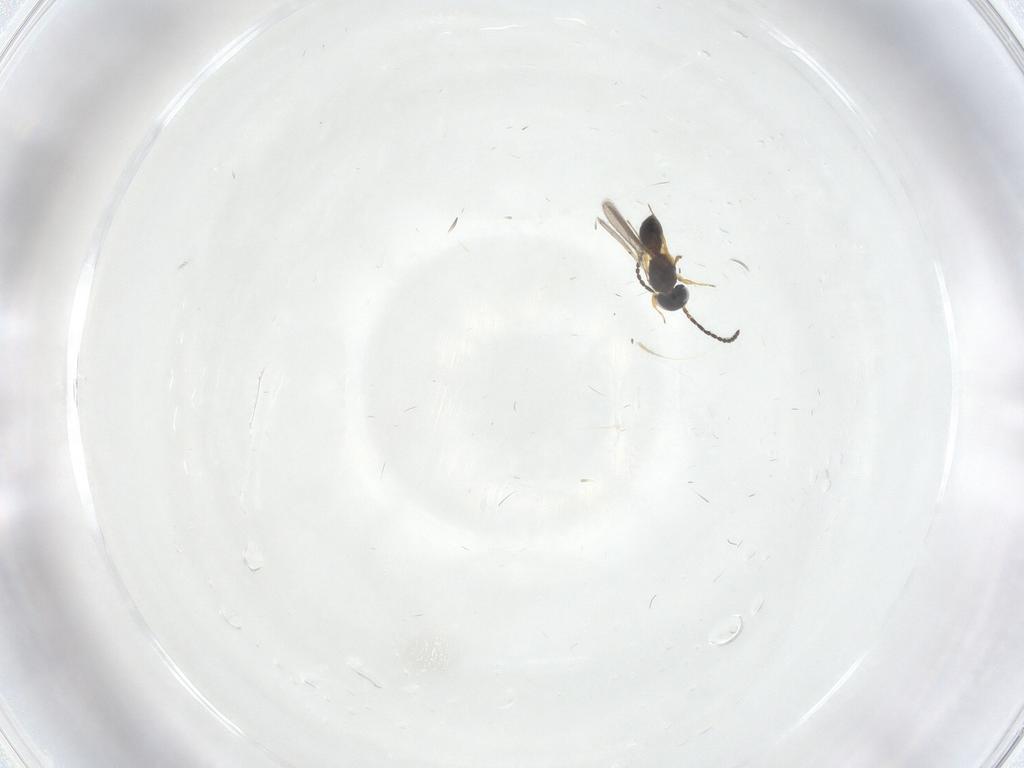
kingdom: Animalia
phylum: Arthropoda
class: Insecta
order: Hymenoptera
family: Scelionidae
